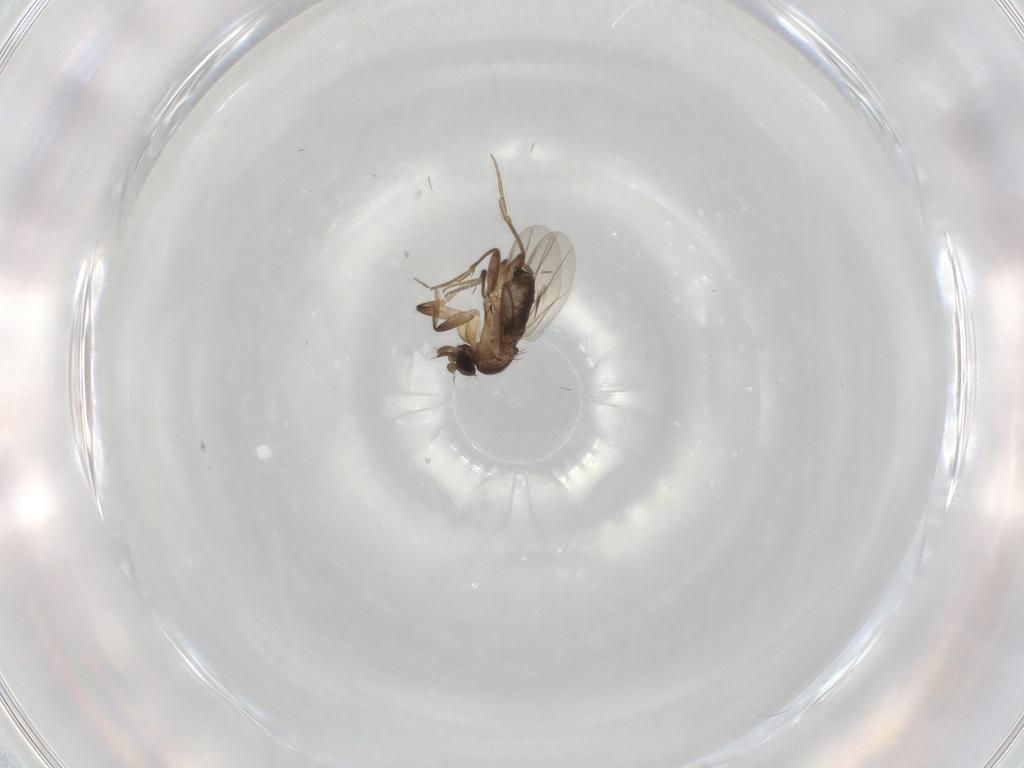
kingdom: Animalia
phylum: Arthropoda
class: Insecta
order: Diptera
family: Phoridae
